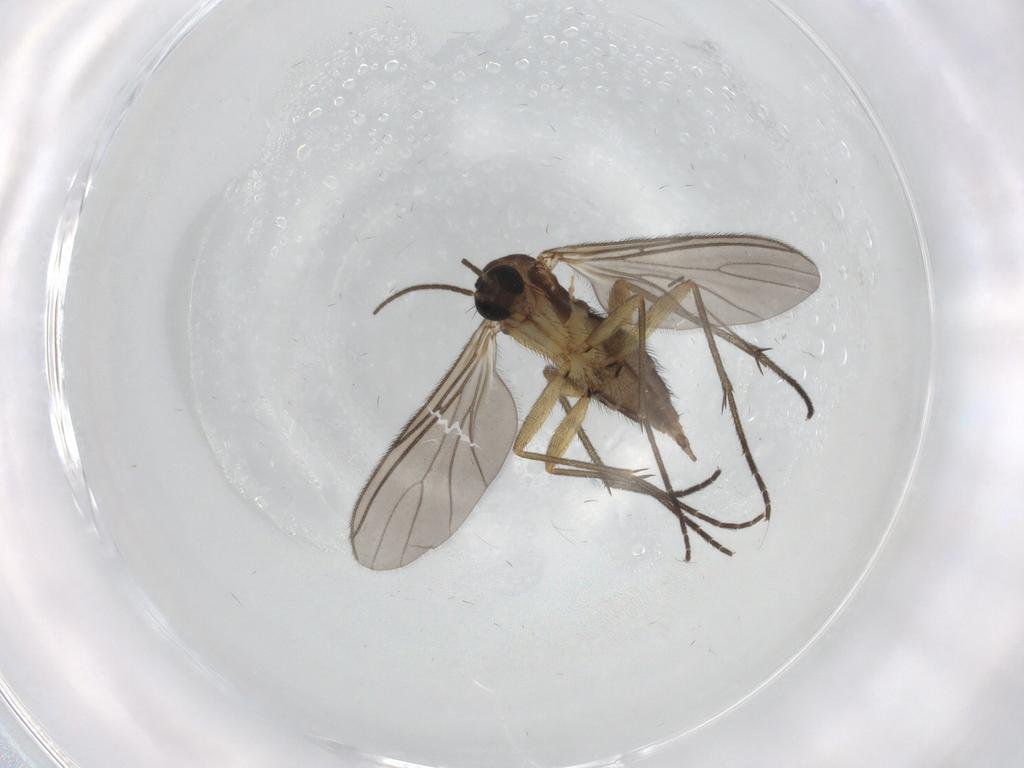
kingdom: Animalia
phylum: Arthropoda
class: Insecta
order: Diptera
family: Sciaridae
